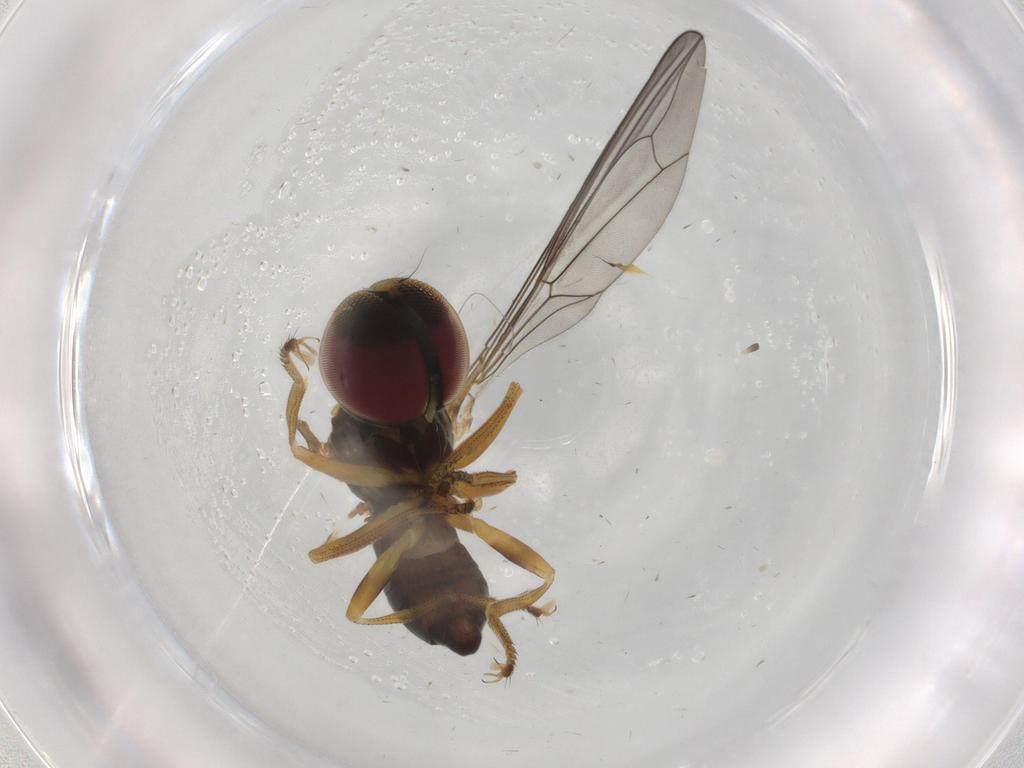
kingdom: Animalia
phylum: Arthropoda
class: Insecta
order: Diptera
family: Pipunculidae
